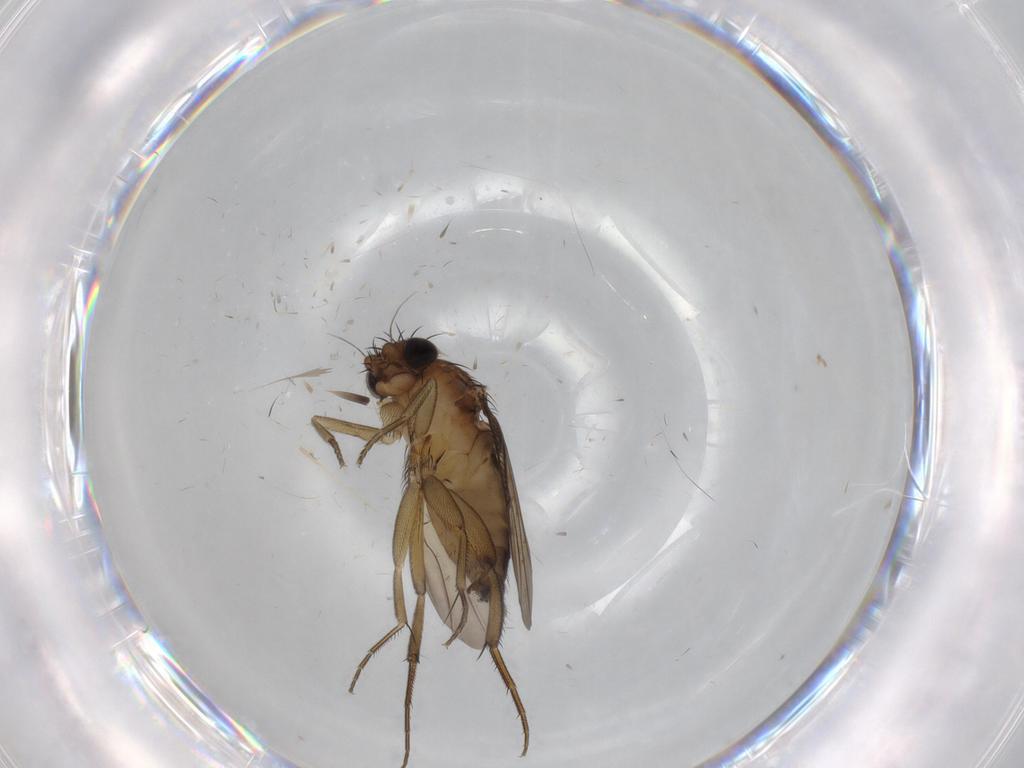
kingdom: Animalia
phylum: Arthropoda
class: Insecta
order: Diptera
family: Phoridae
